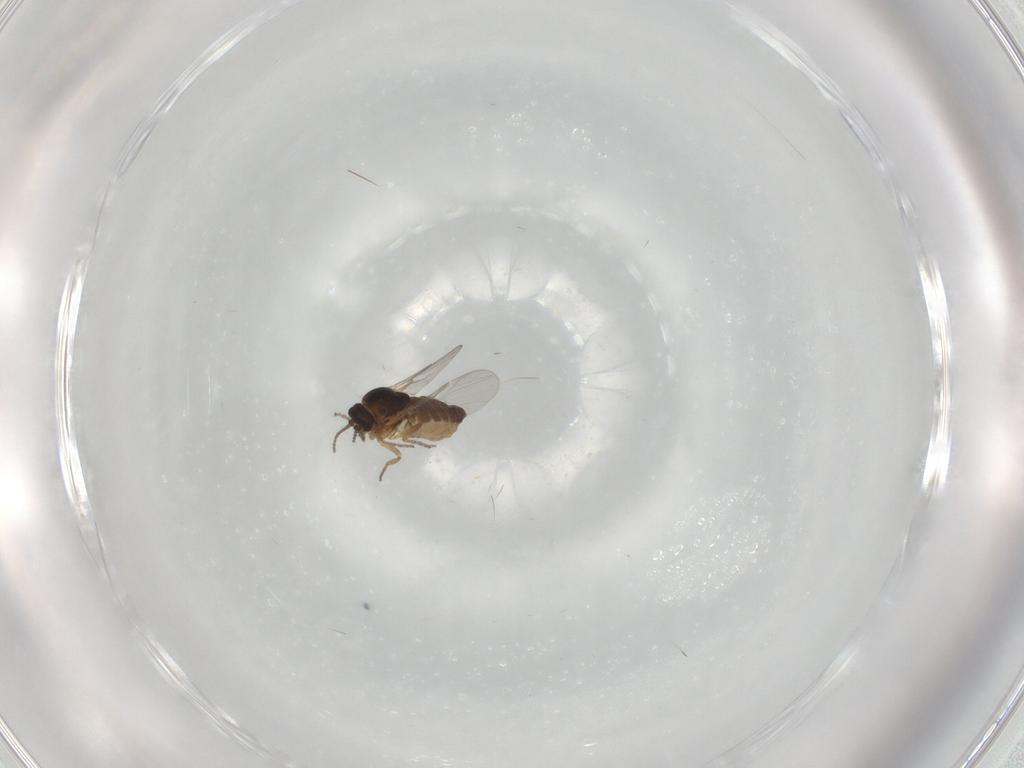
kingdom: Animalia
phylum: Arthropoda
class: Insecta
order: Diptera
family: Ceratopogonidae
